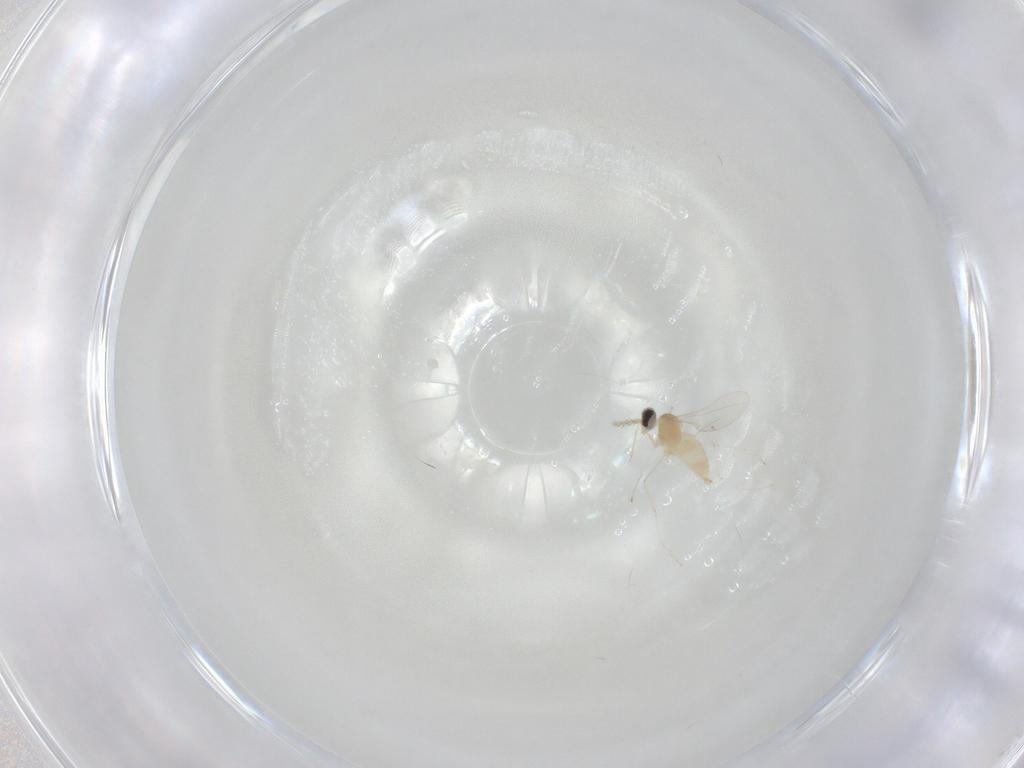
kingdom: Animalia
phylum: Arthropoda
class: Insecta
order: Diptera
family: Cecidomyiidae
